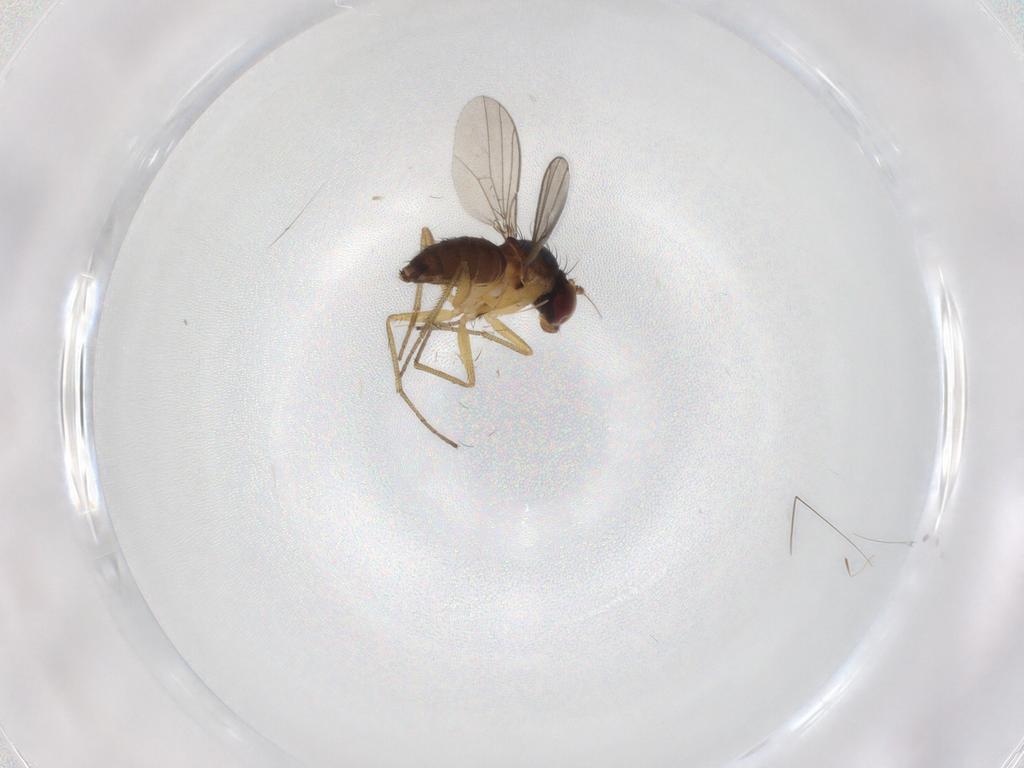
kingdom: Animalia
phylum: Arthropoda
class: Insecta
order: Diptera
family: Dolichopodidae
